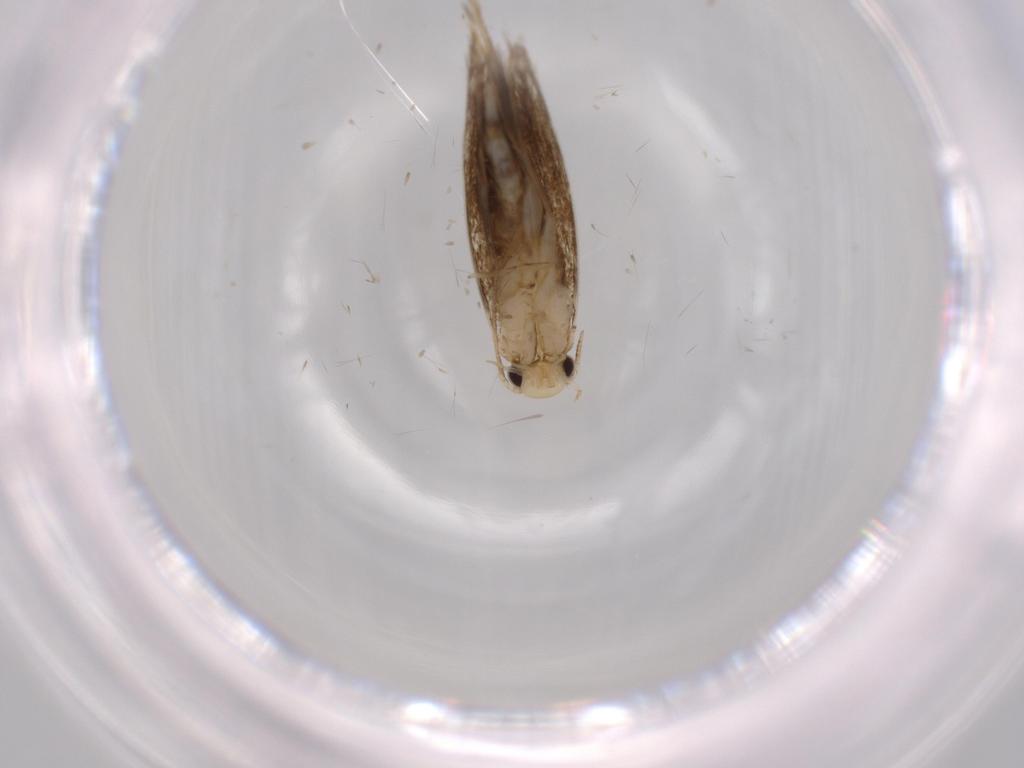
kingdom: Animalia
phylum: Arthropoda
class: Insecta
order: Lepidoptera
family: Tineidae
